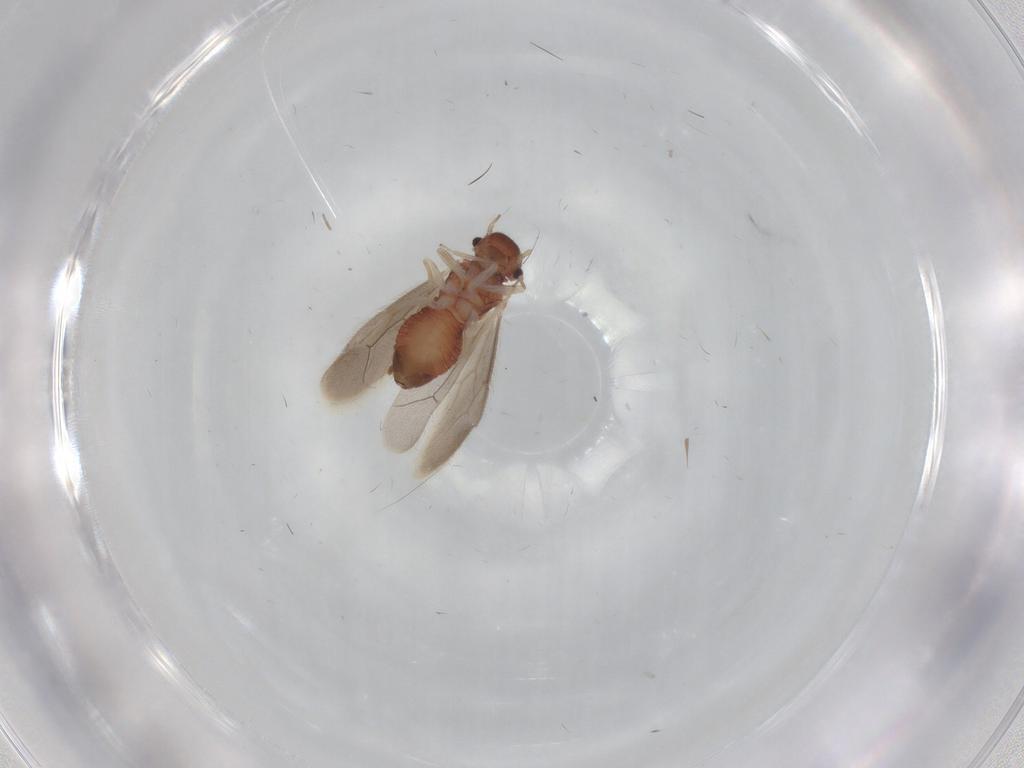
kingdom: Animalia
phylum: Arthropoda
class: Insecta
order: Psocodea
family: Archipsocidae
